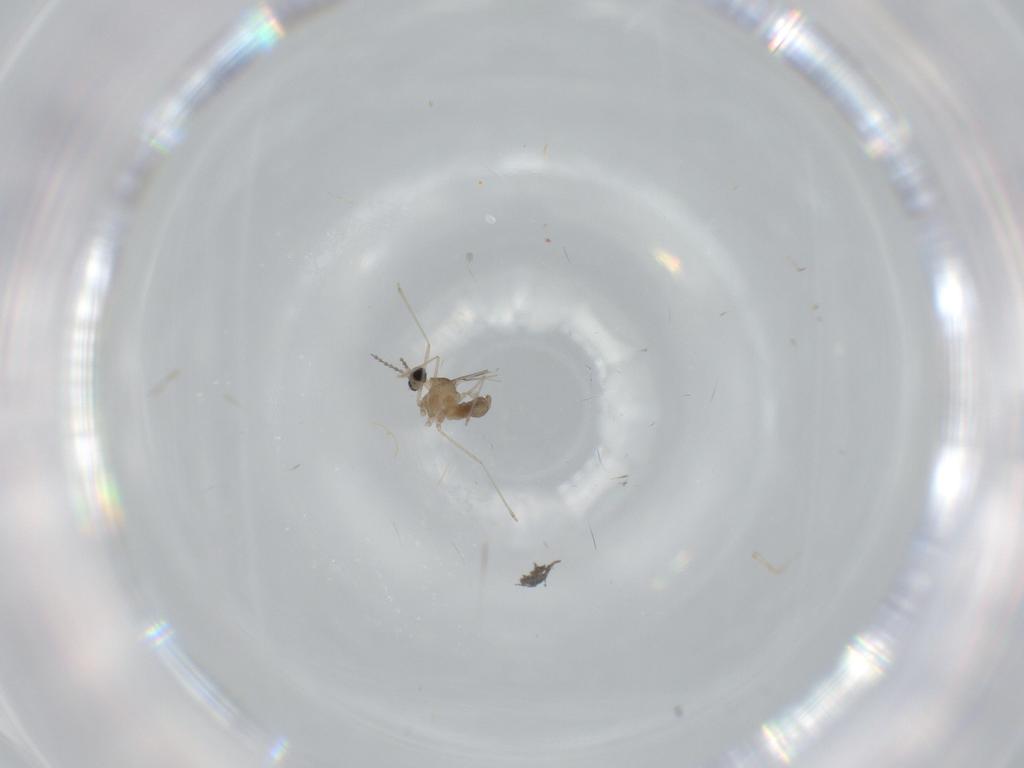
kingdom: Animalia
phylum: Arthropoda
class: Insecta
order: Diptera
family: Cecidomyiidae
